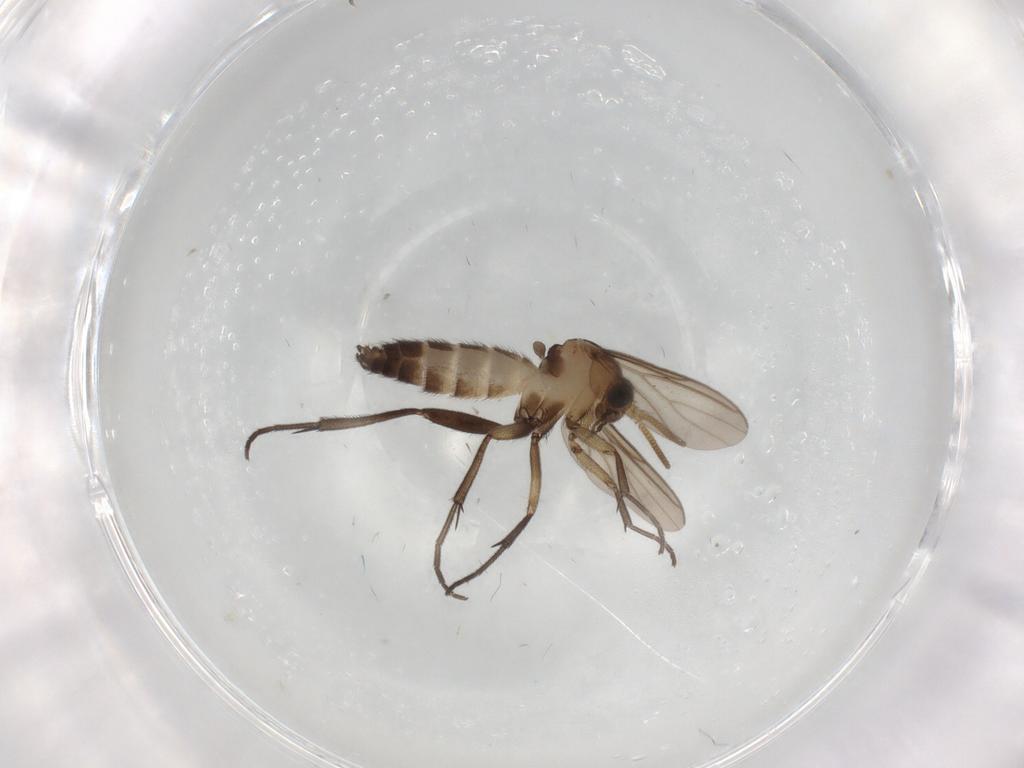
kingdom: Animalia
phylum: Arthropoda
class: Insecta
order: Diptera
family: Mycetophilidae
